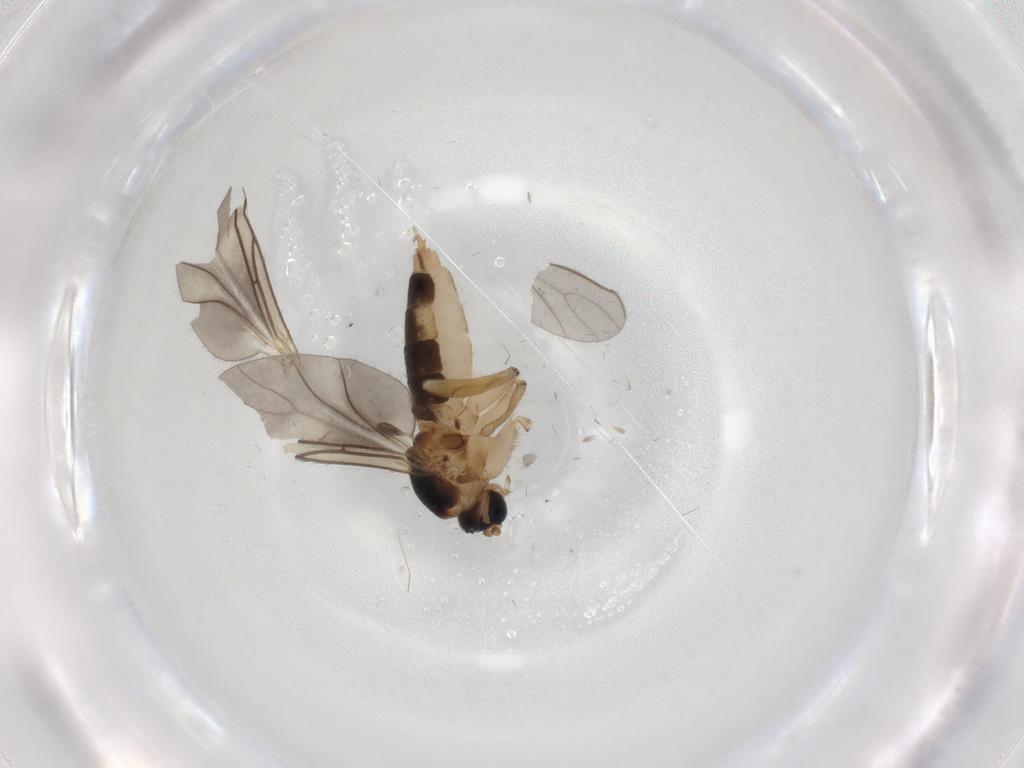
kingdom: Animalia
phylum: Arthropoda
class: Insecta
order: Diptera
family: Sciaridae
